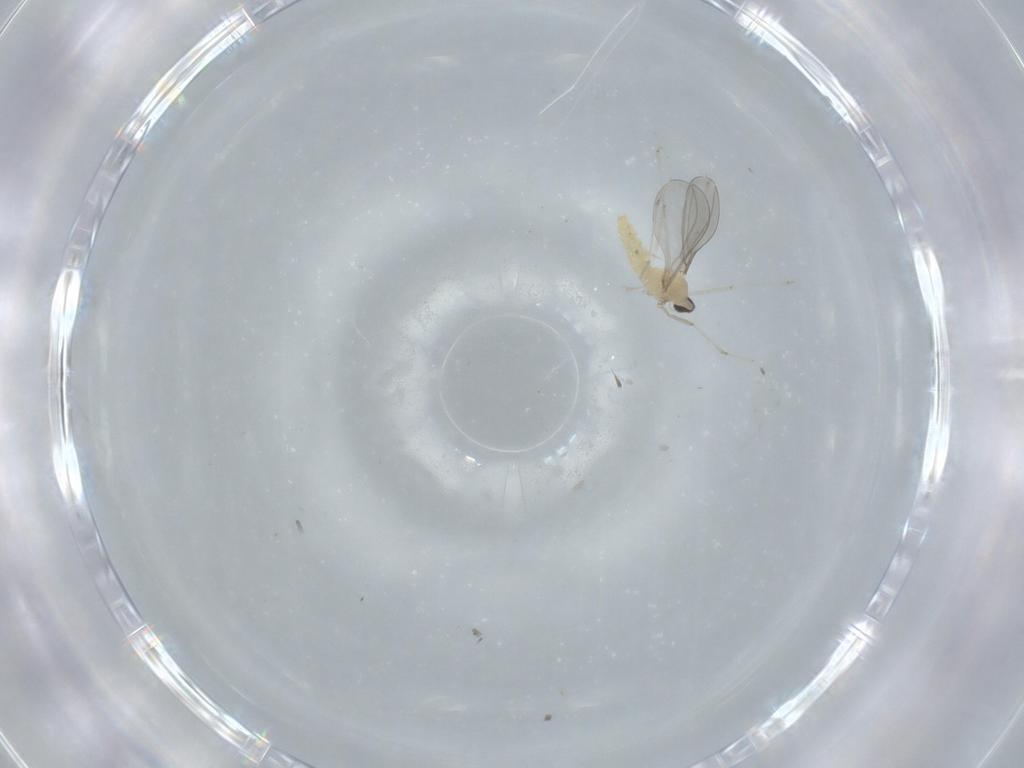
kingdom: Animalia
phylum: Arthropoda
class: Insecta
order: Diptera
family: Cecidomyiidae
